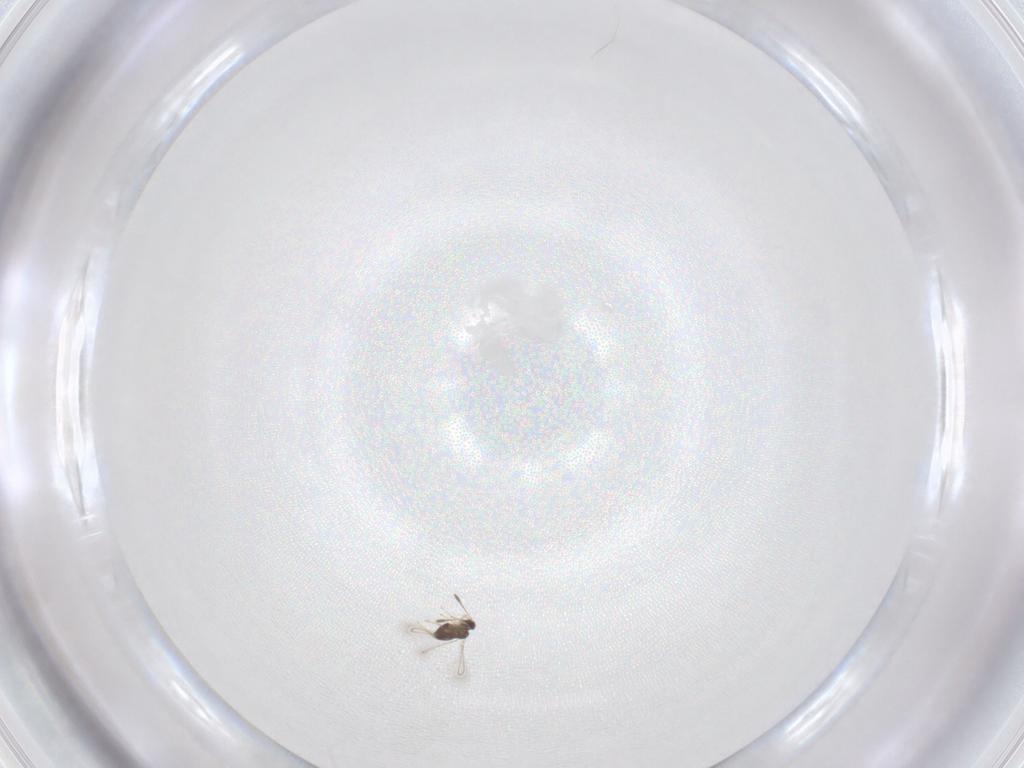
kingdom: Animalia
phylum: Arthropoda
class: Insecta
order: Hymenoptera
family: Mymaridae
